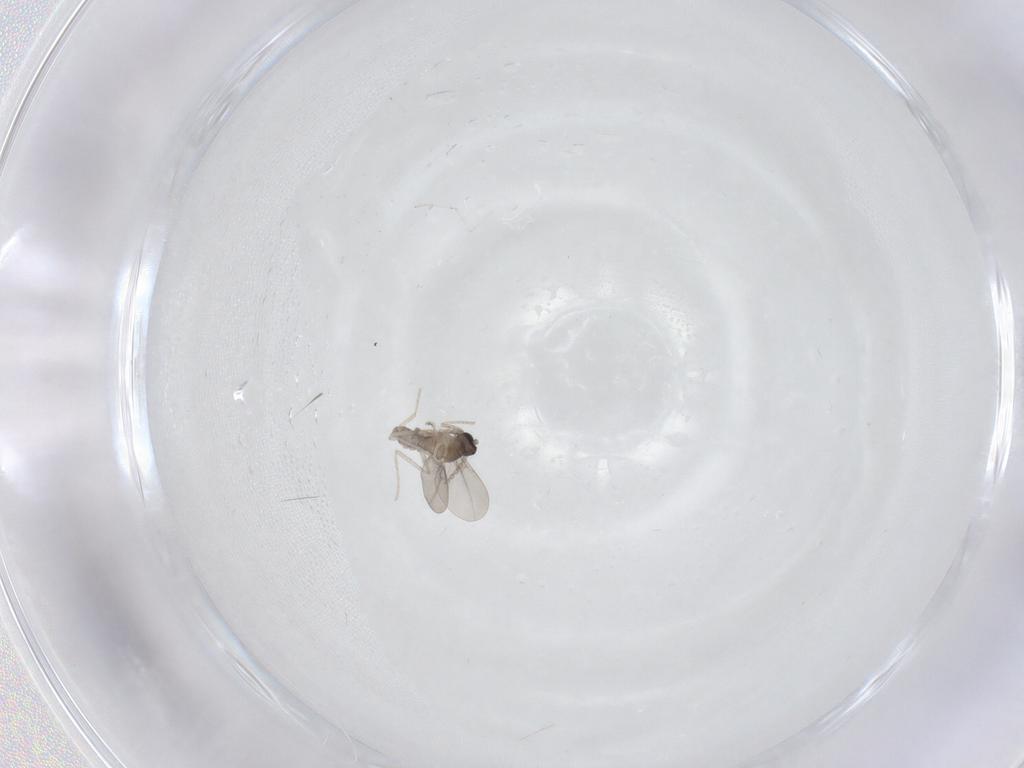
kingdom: Animalia
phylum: Arthropoda
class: Insecta
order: Diptera
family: Cecidomyiidae
